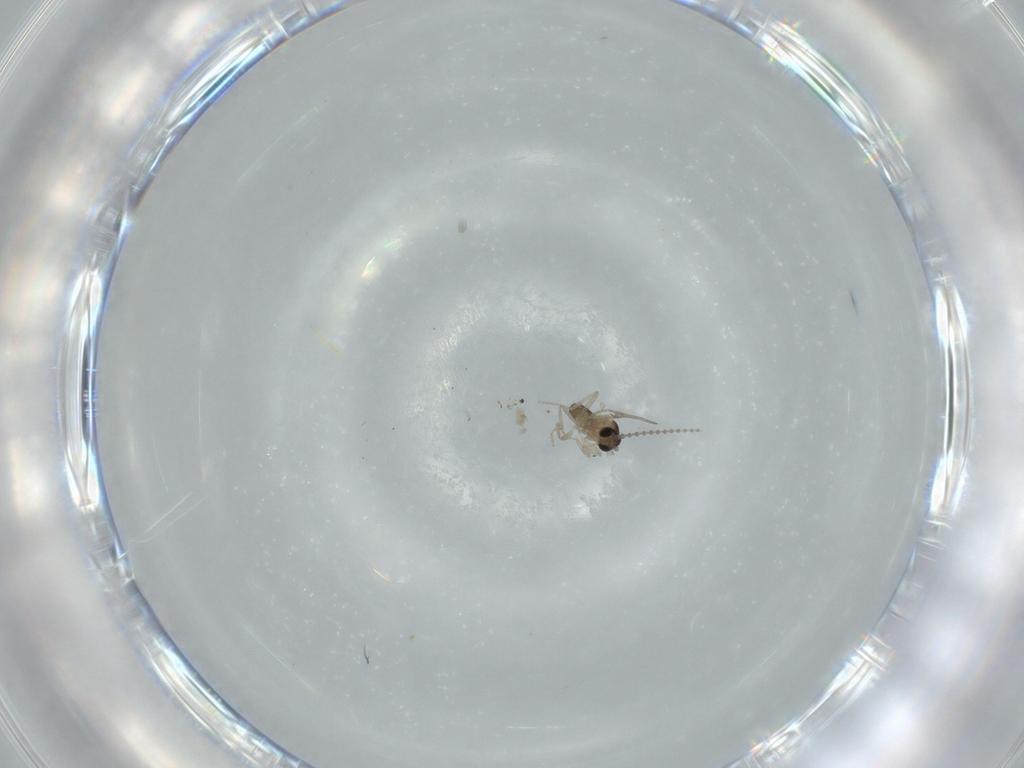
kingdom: Animalia
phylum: Arthropoda
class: Insecta
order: Diptera
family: Cecidomyiidae
